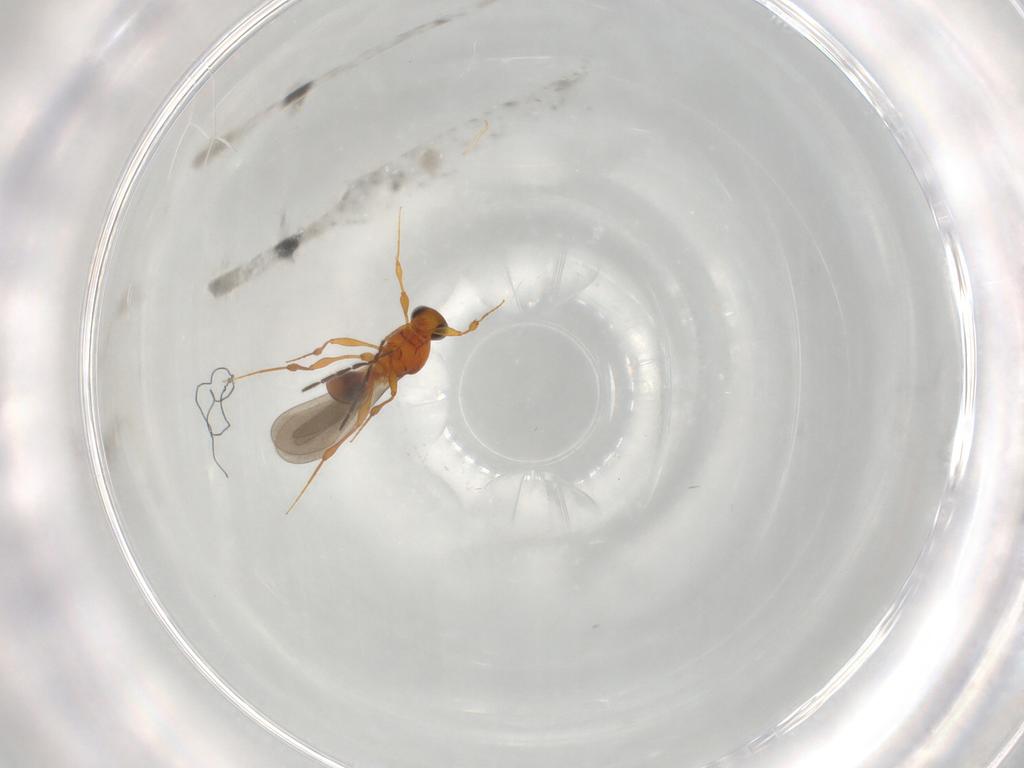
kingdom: Animalia
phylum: Arthropoda
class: Insecta
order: Hymenoptera
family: Platygastridae
